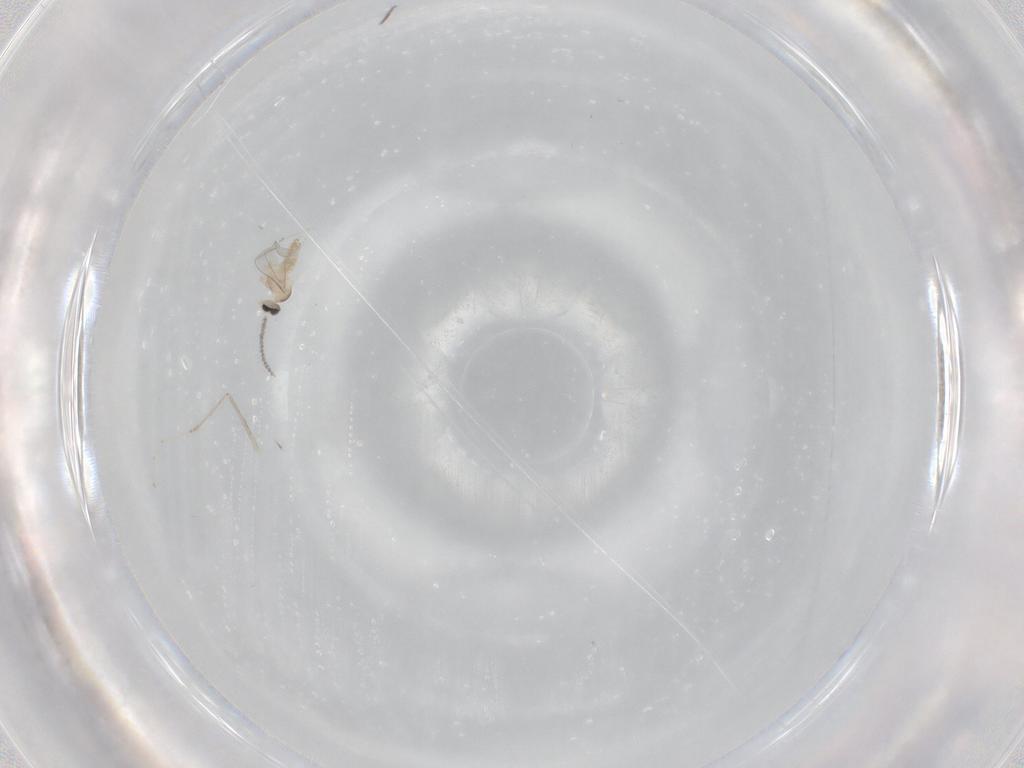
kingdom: Animalia
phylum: Arthropoda
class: Insecta
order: Diptera
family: Cecidomyiidae
